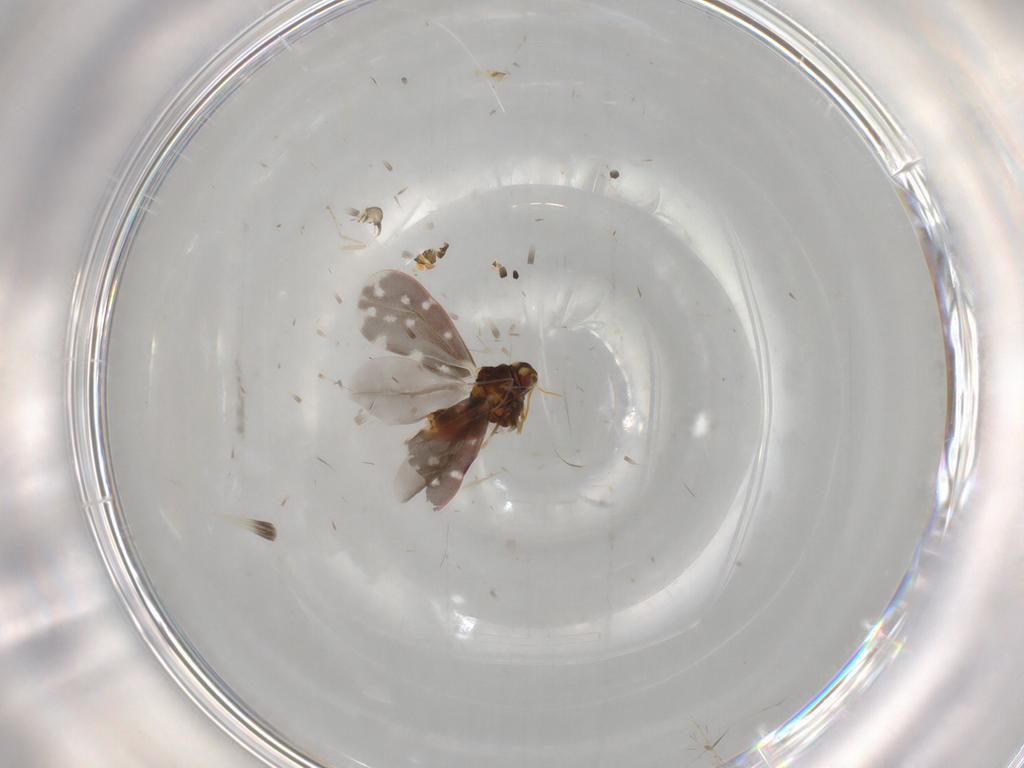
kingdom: Animalia
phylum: Arthropoda
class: Insecta
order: Hemiptera
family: Aleyrodidae
